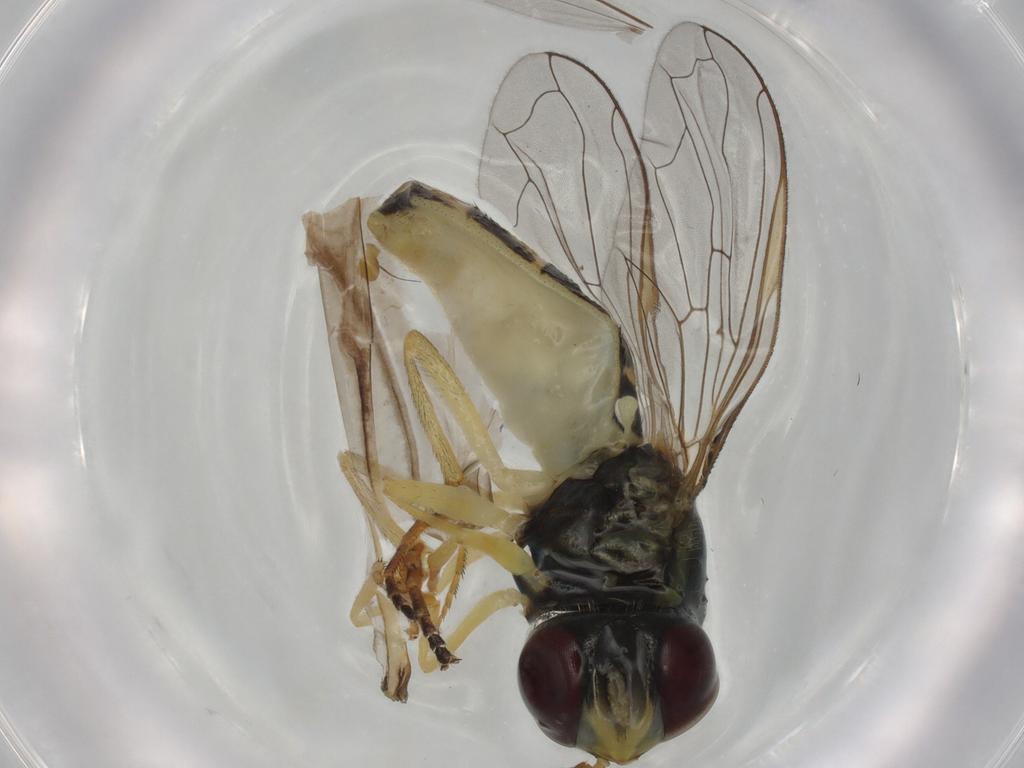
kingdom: Animalia
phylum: Arthropoda
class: Insecta
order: Diptera
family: Syrphidae
